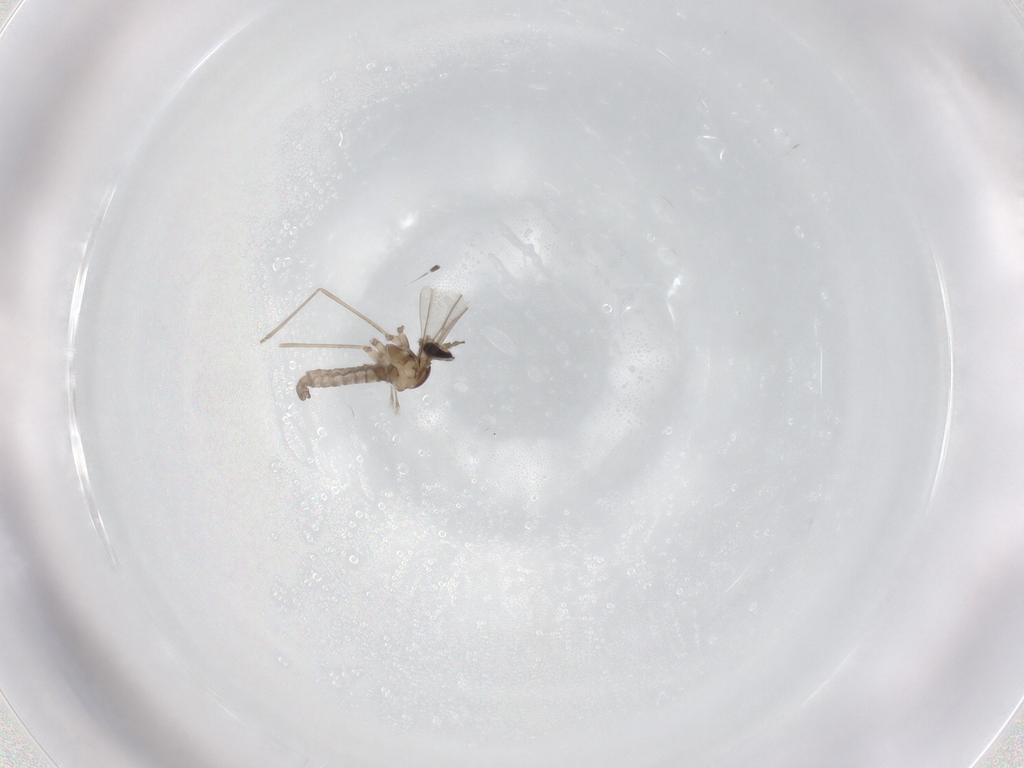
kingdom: Animalia
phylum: Arthropoda
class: Insecta
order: Diptera
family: Cecidomyiidae
